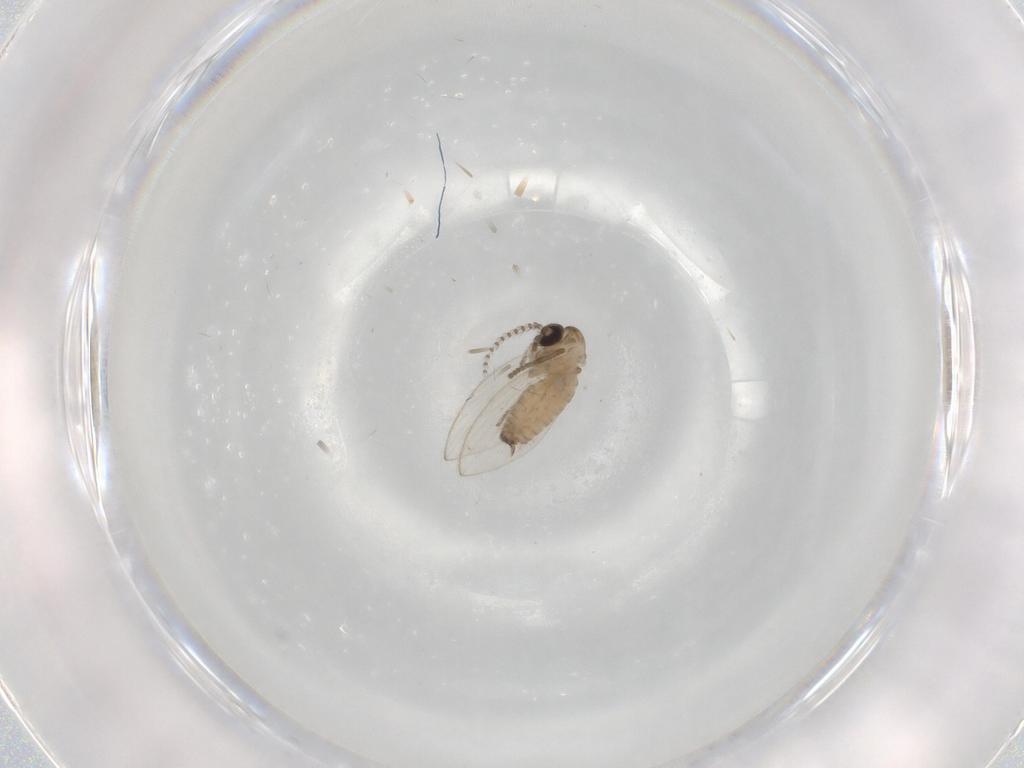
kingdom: Animalia
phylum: Arthropoda
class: Insecta
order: Diptera
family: Psychodidae
